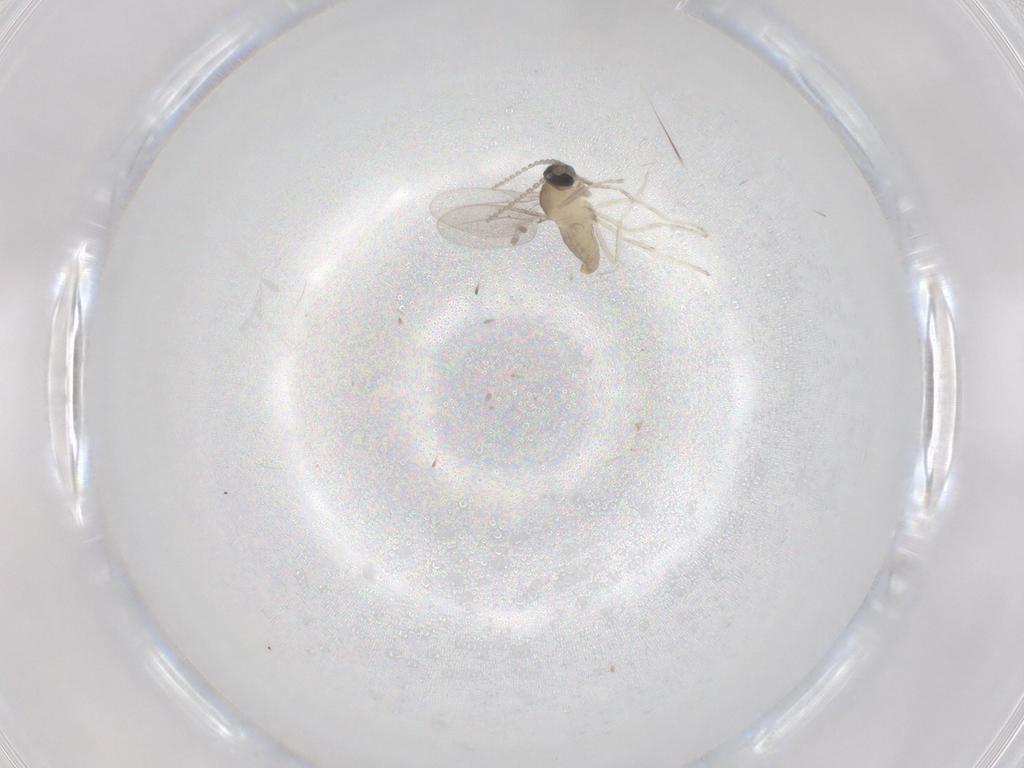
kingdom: Animalia
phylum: Arthropoda
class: Insecta
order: Diptera
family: Cecidomyiidae
